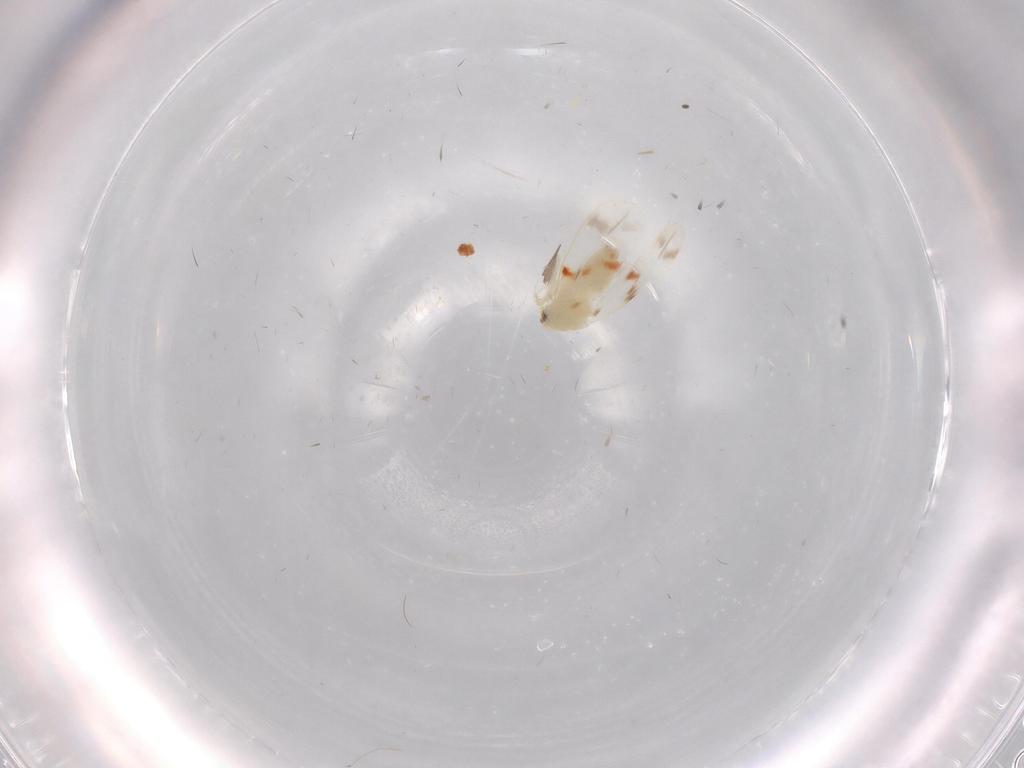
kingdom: Animalia
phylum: Arthropoda
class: Insecta
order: Hemiptera
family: Aleyrodidae
